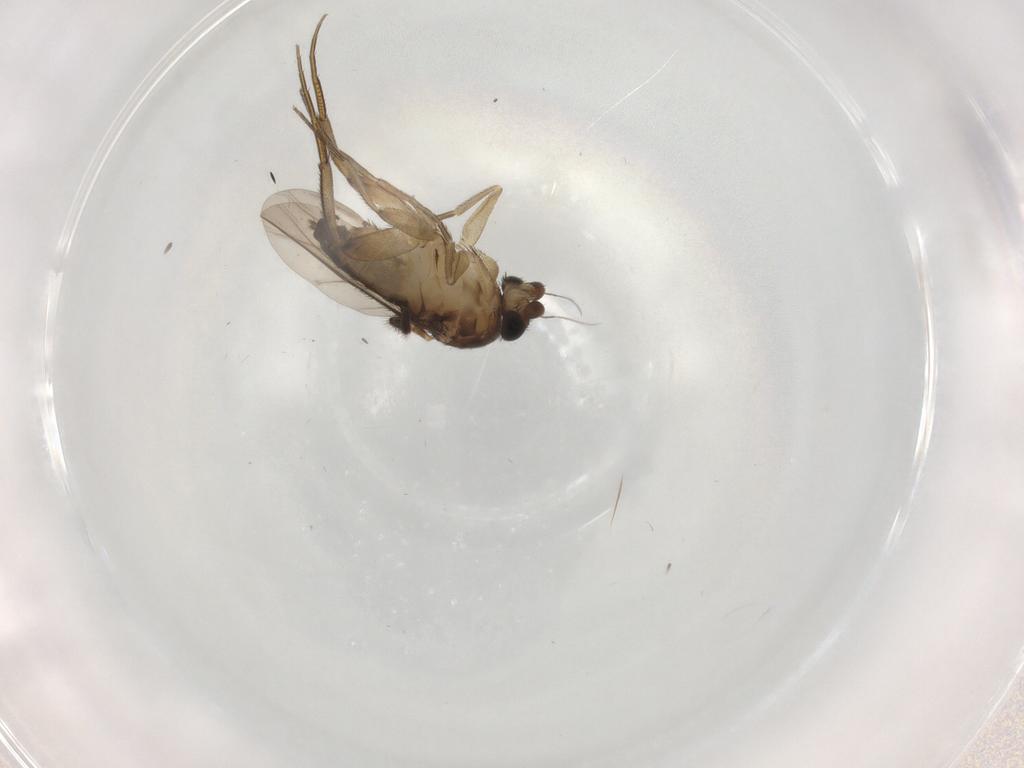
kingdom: Animalia
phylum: Arthropoda
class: Insecta
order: Diptera
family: Phoridae
